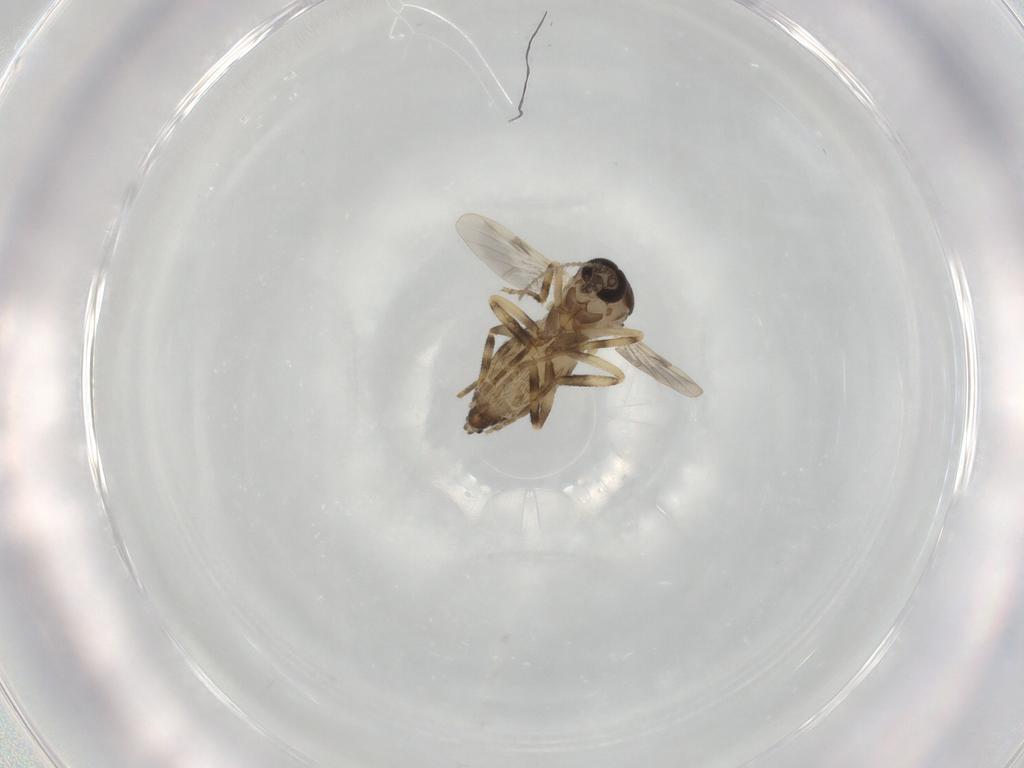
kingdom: Animalia
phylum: Arthropoda
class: Insecta
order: Diptera
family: Ceratopogonidae
